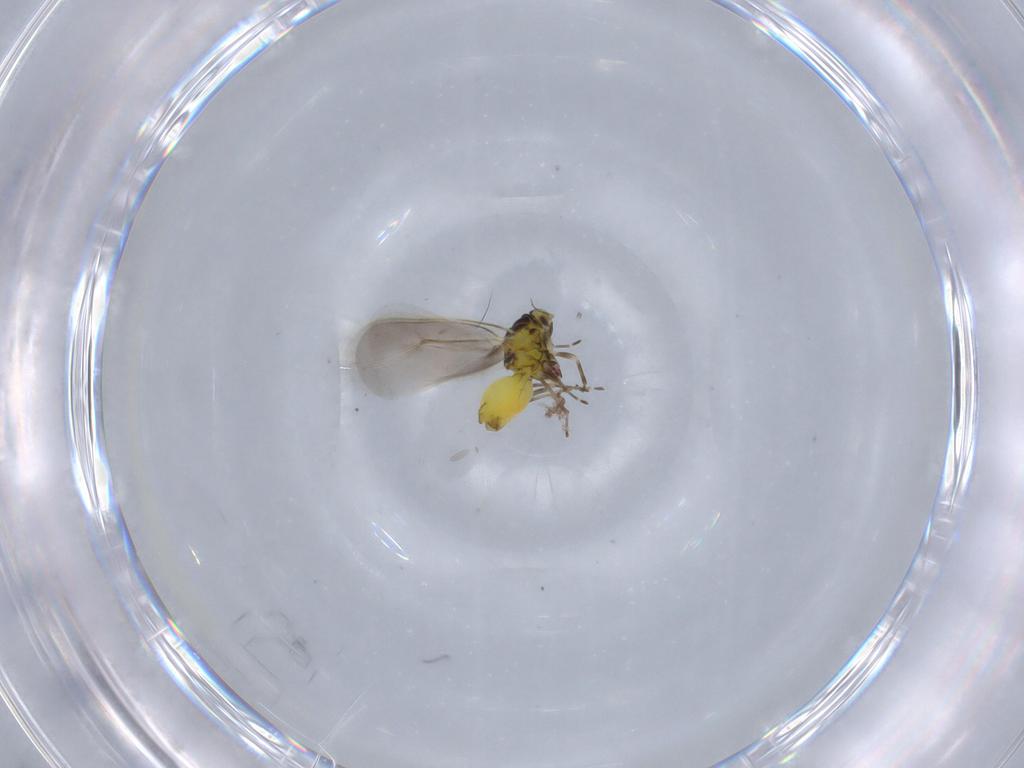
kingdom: Animalia
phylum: Arthropoda
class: Insecta
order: Hemiptera
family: Aleyrodidae
